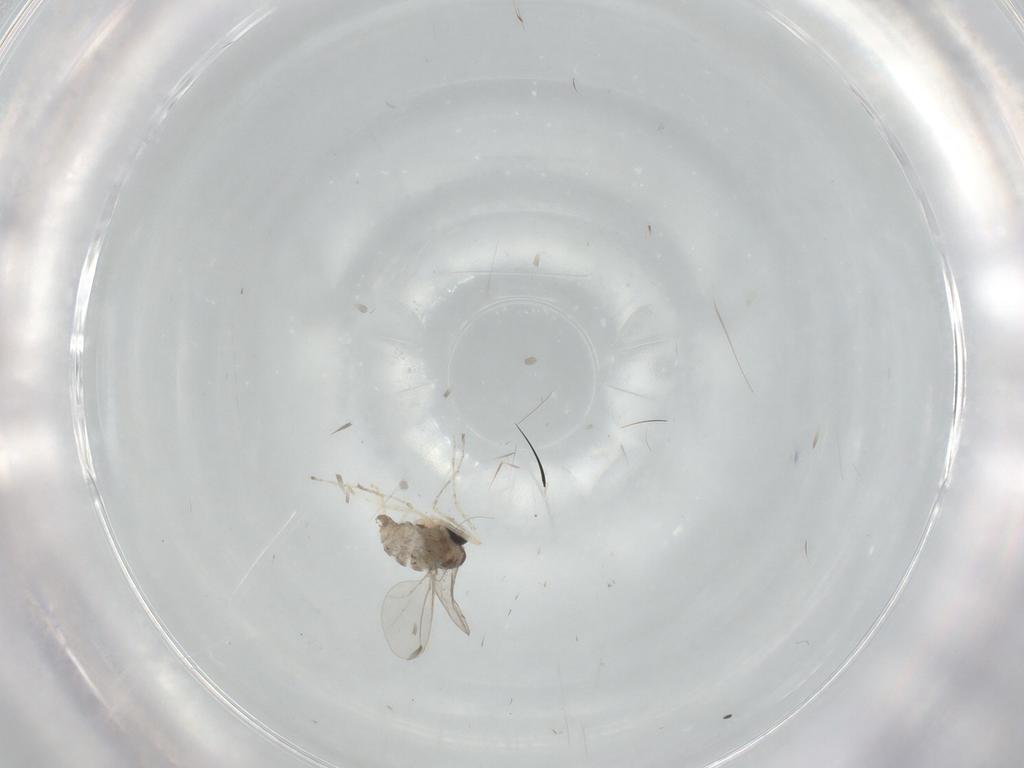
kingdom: Animalia
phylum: Arthropoda
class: Insecta
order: Diptera
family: Cecidomyiidae
